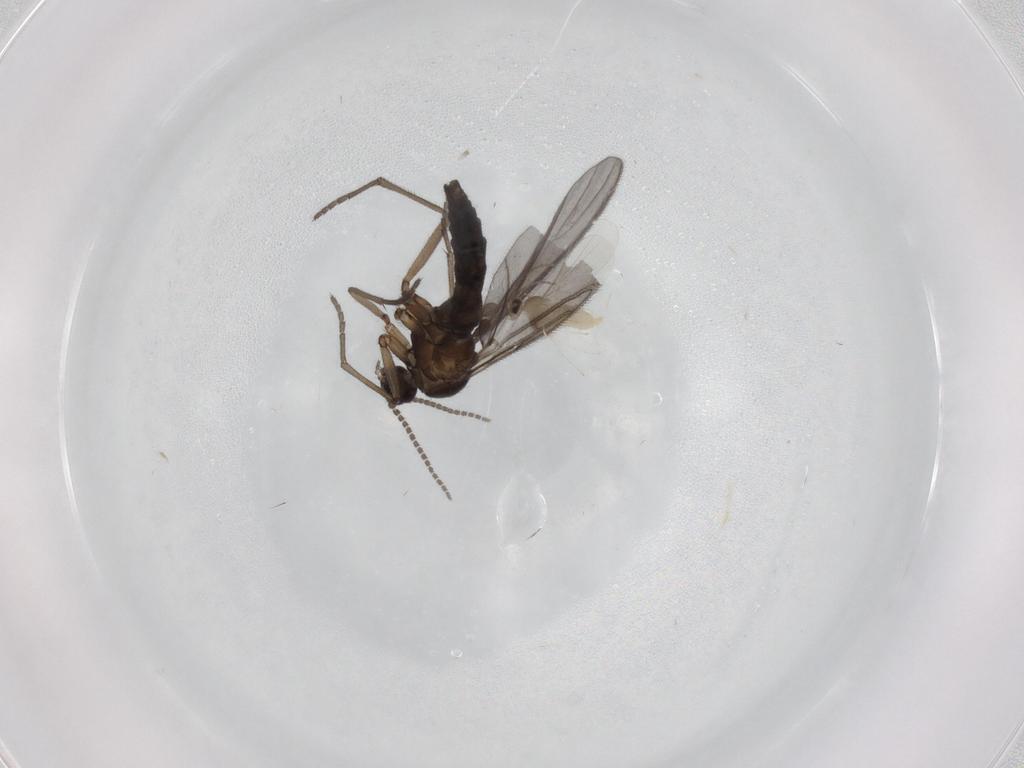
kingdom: Animalia
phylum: Arthropoda
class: Insecta
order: Diptera
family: Sciaridae
